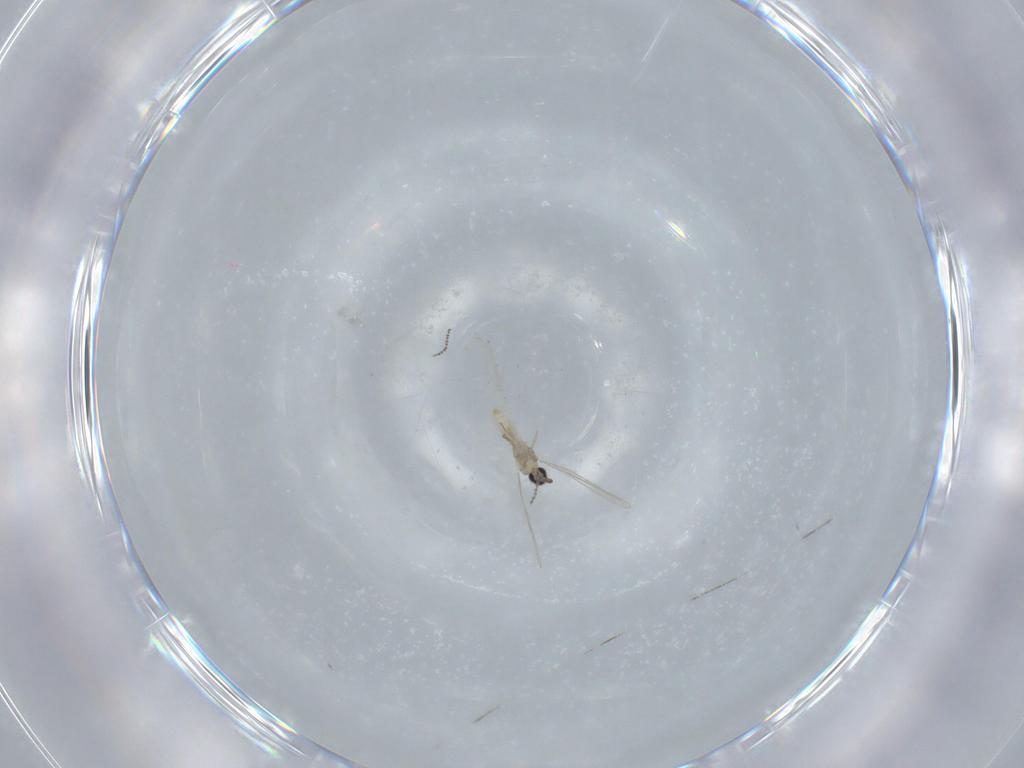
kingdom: Animalia
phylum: Arthropoda
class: Insecta
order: Diptera
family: Cecidomyiidae
